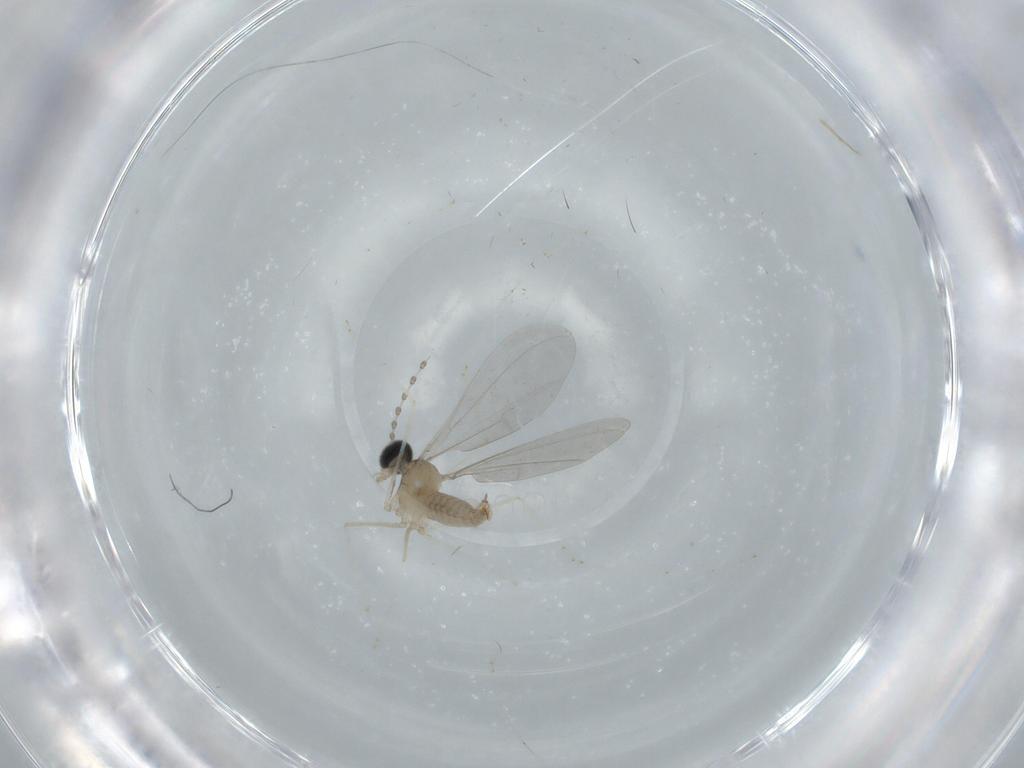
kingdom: Animalia
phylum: Arthropoda
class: Insecta
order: Diptera
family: Cecidomyiidae
